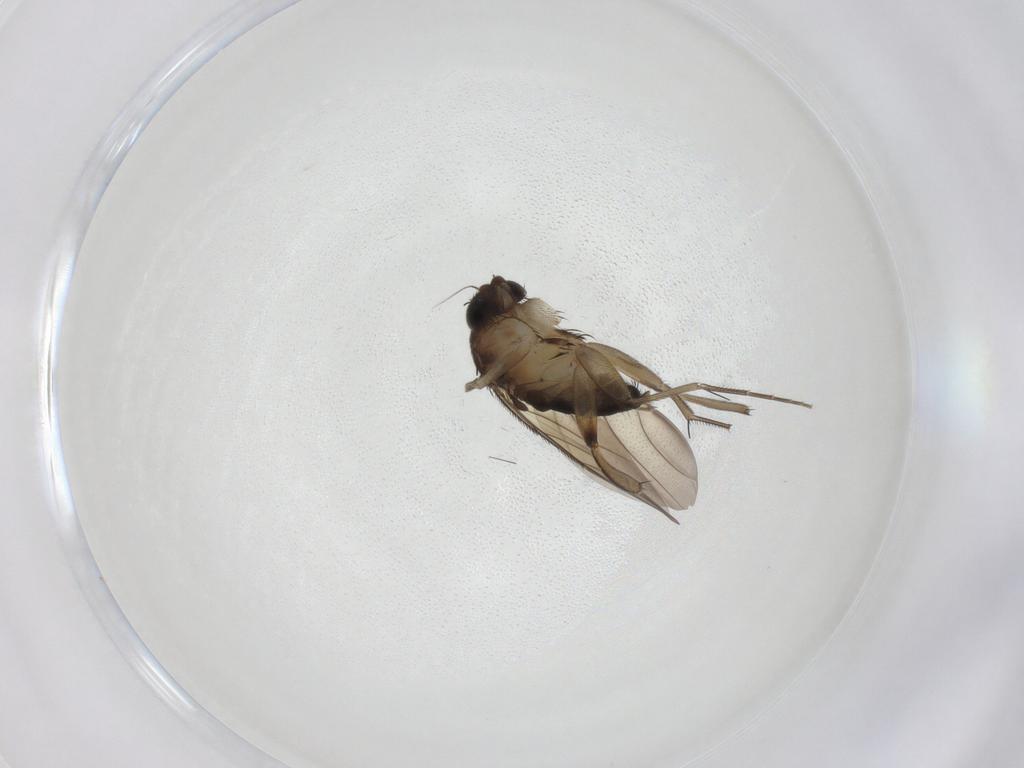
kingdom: Animalia
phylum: Arthropoda
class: Insecta
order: Diptera
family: Phoridae
